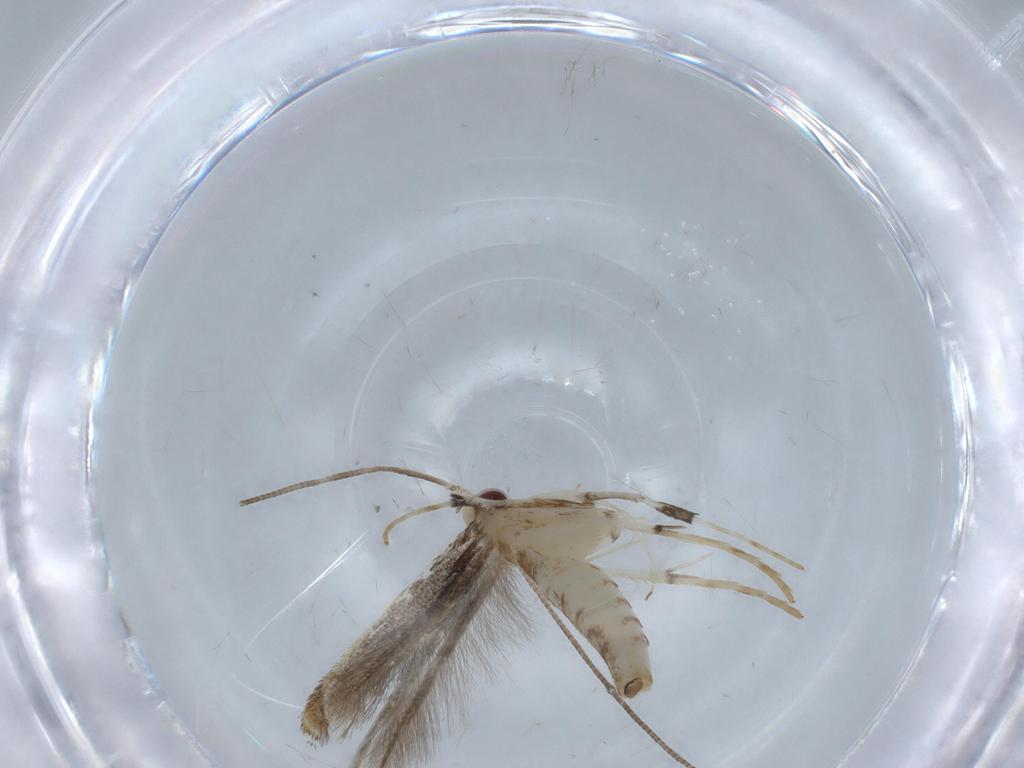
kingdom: Animalia
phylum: Arthropoda
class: Insecta
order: Lepidoptera
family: Gracillariidae
